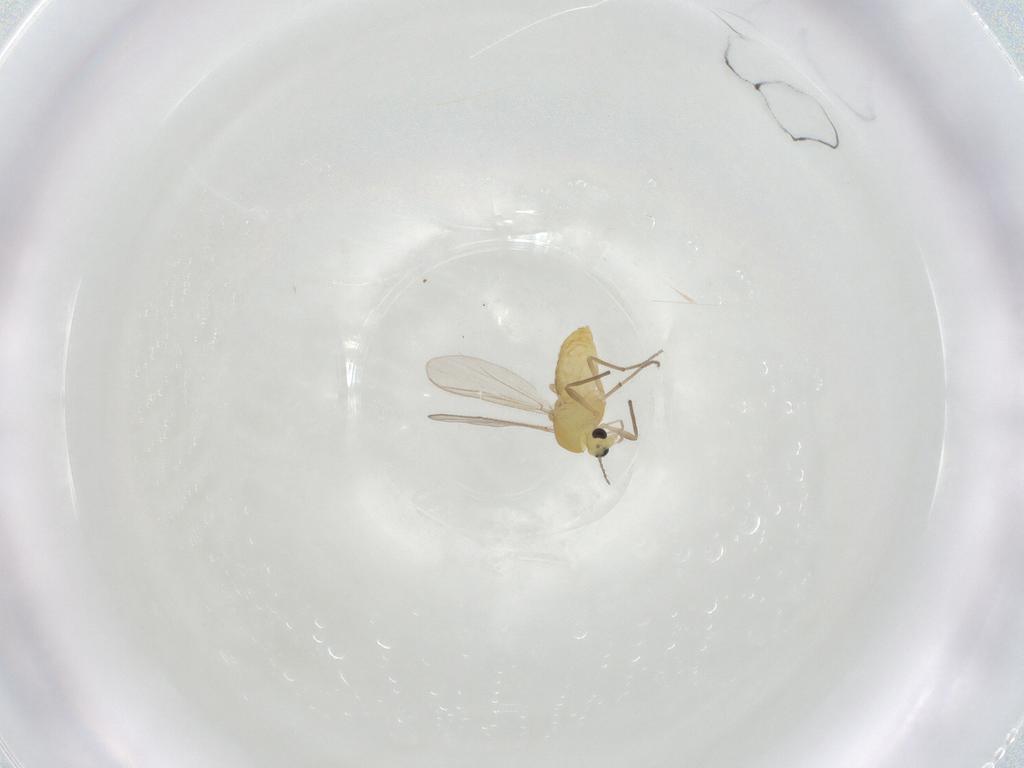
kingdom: Animalia
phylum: Arthropoda
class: Insecta
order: Diptera
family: Chironomidae
